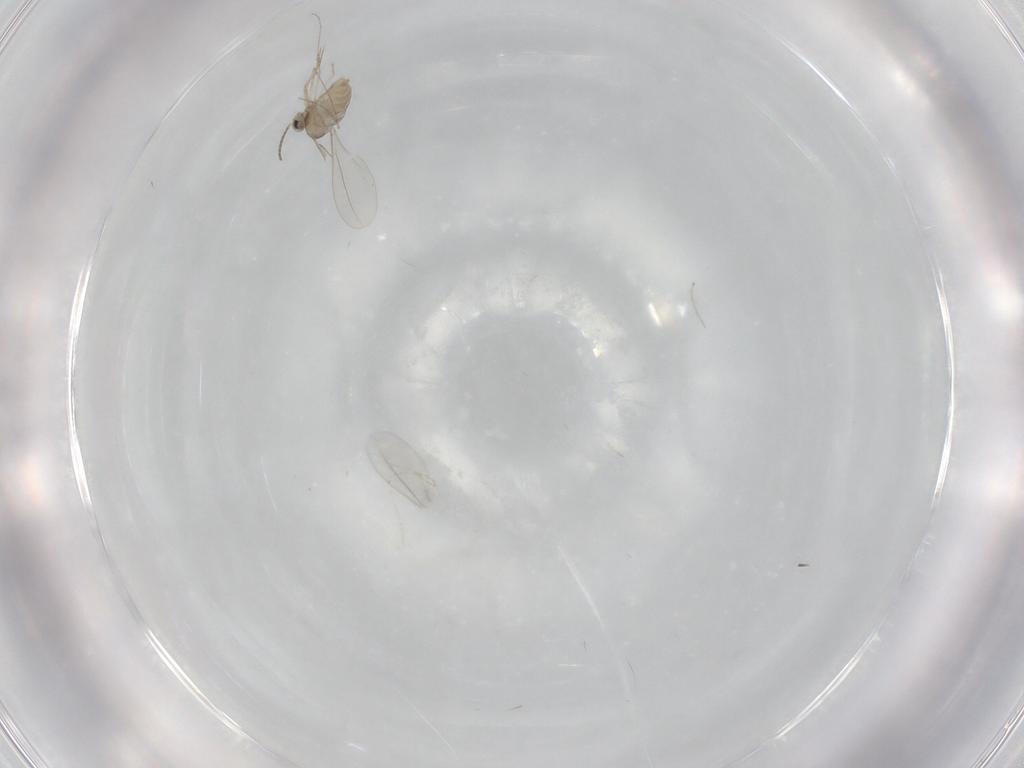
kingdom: Animalia
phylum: Arthropoda
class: Insecta
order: Diptera
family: Cecidomyiidae
